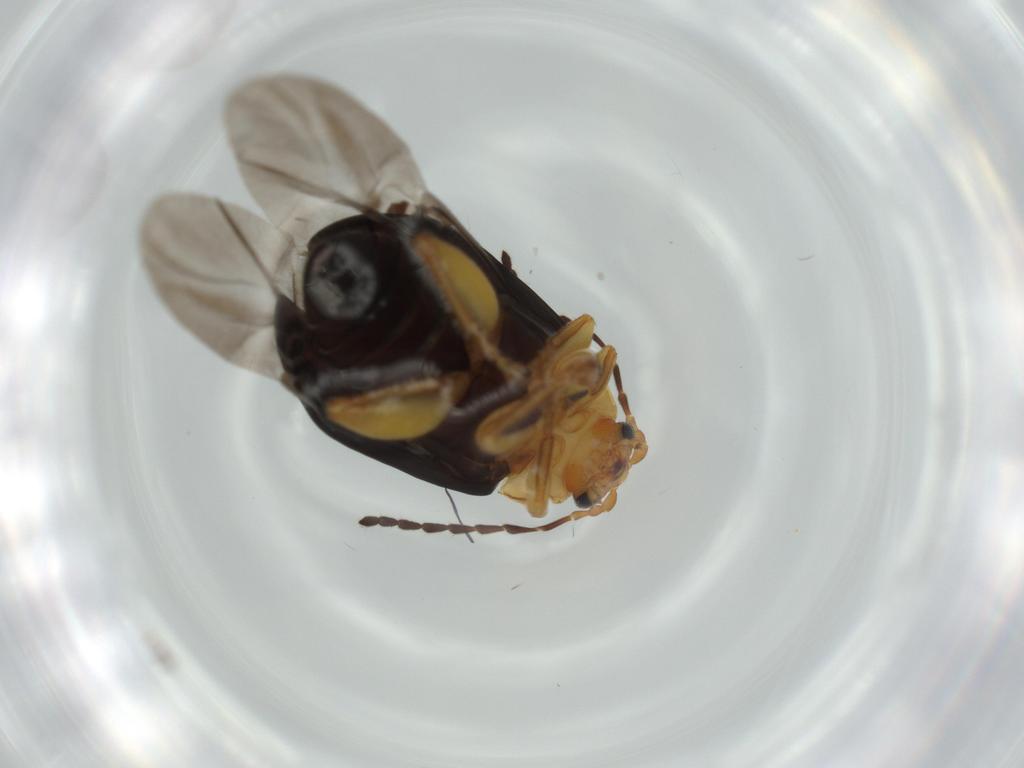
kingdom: Animalia
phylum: Arthropoda
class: Insecta
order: Coleoptera
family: Chrysomelidae
